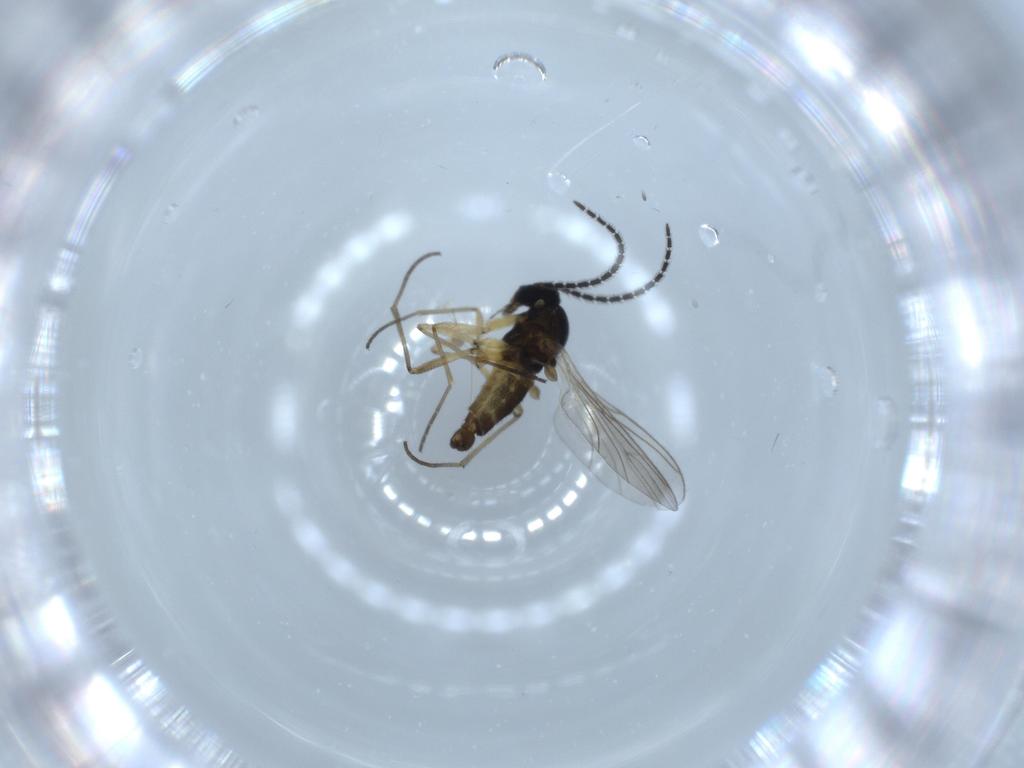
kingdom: Animalia
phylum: Arthropoda
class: Insecta
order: Diptera
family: Sciaridae
